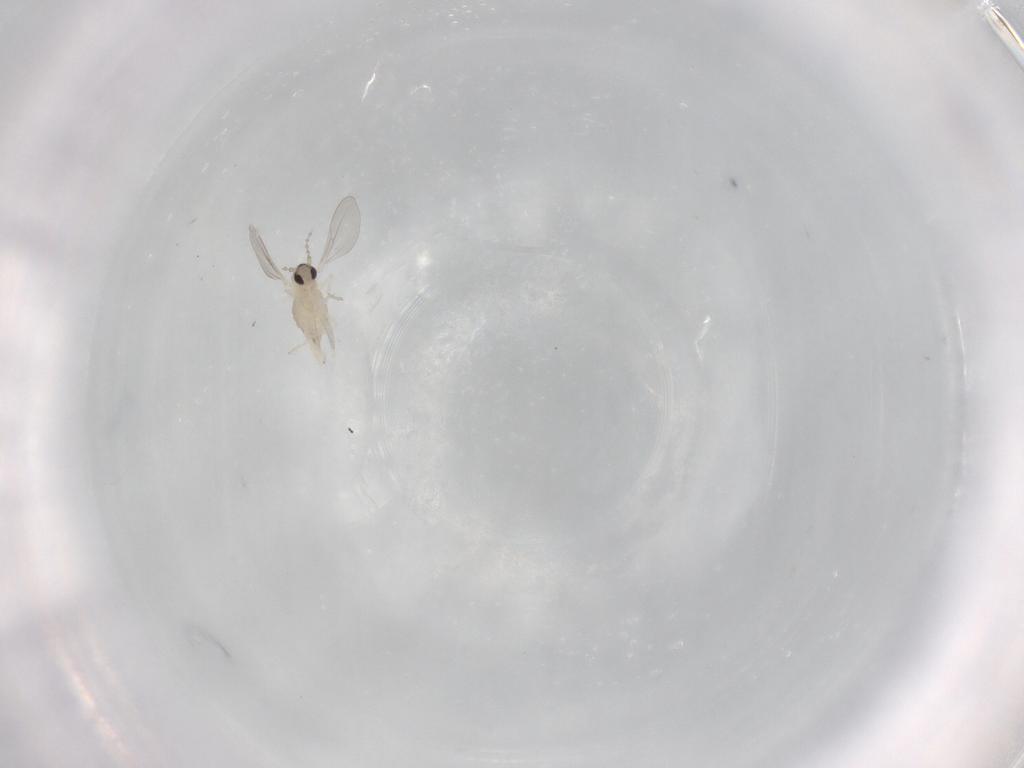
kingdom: Animalia
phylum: Arthropoda
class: Insecta
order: Diptera
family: Cecidomyiidae
